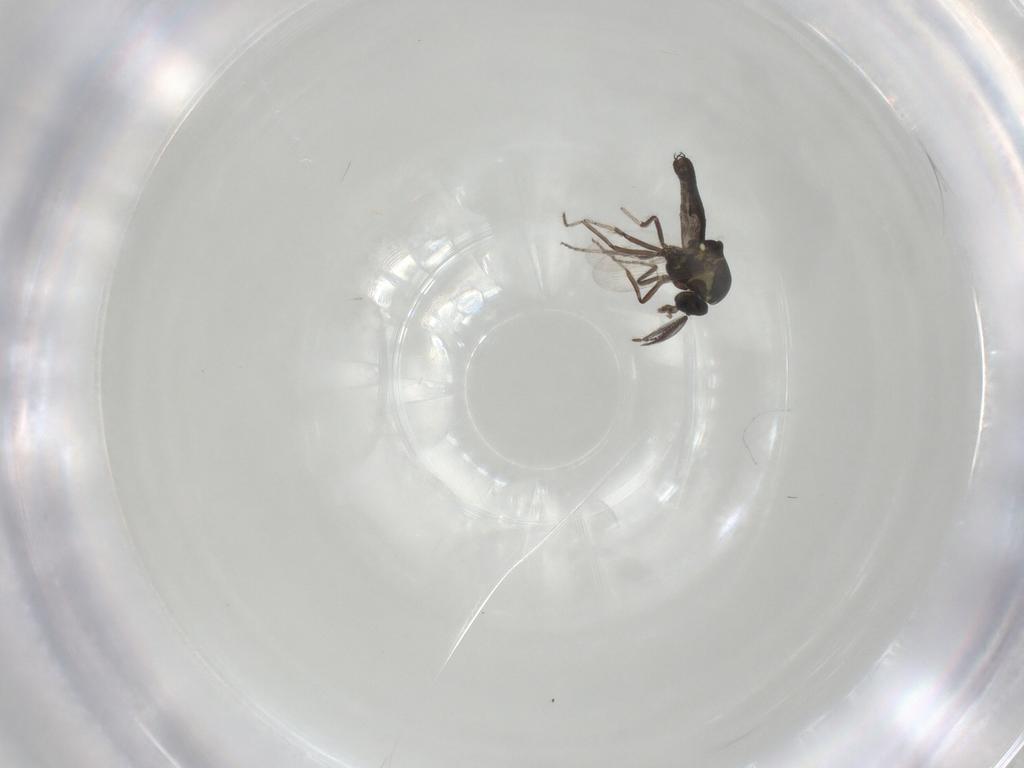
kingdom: Animalia
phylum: Arthropoda
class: Insecta
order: Diptera
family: Ceratopogonidae
